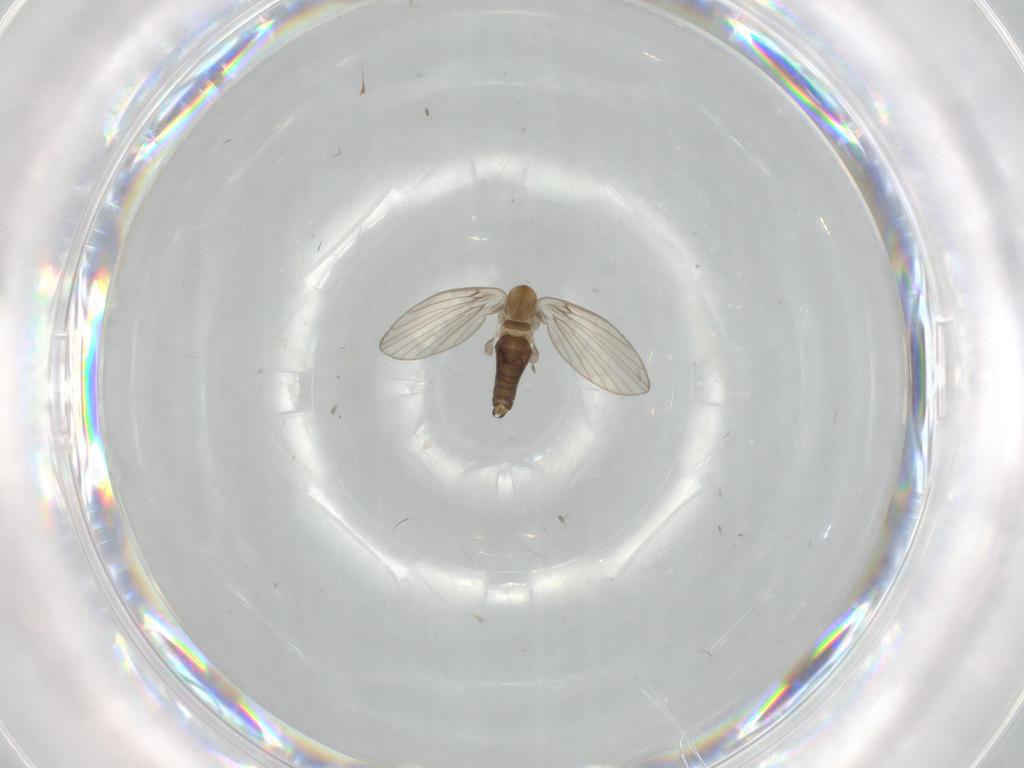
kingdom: Animalia
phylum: Arthropoda
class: Insecta
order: Diptera
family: Psychodidae
